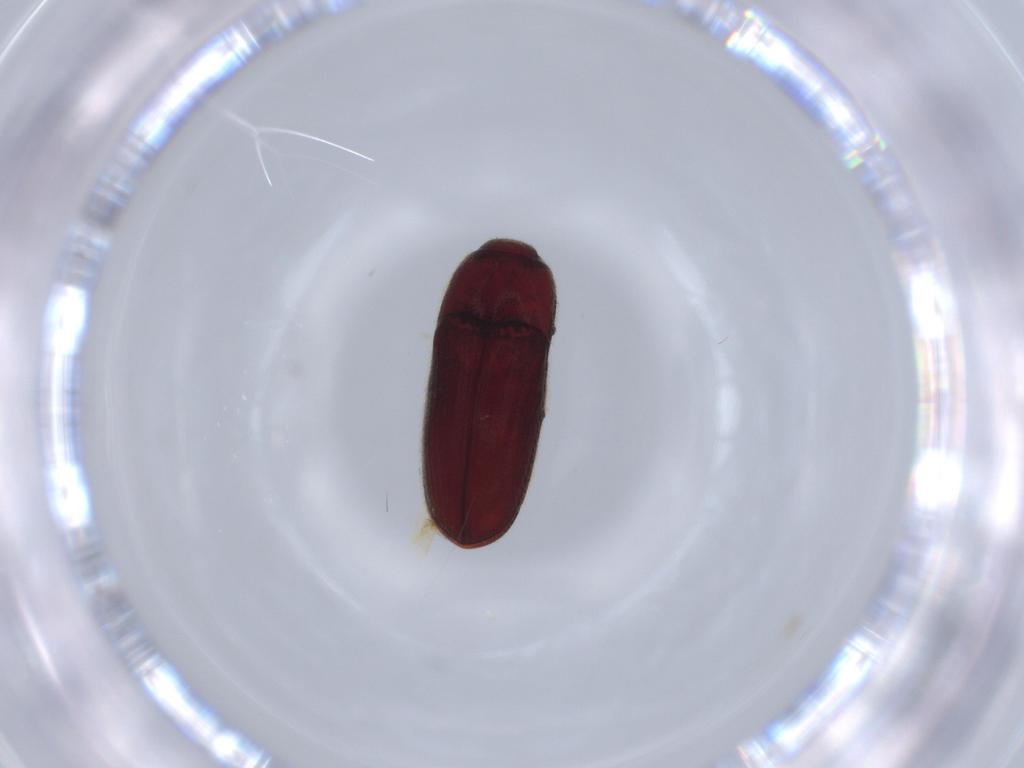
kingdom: Animalia
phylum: Arthropoda
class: Insecta
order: Coleoptera
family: Throscidae
